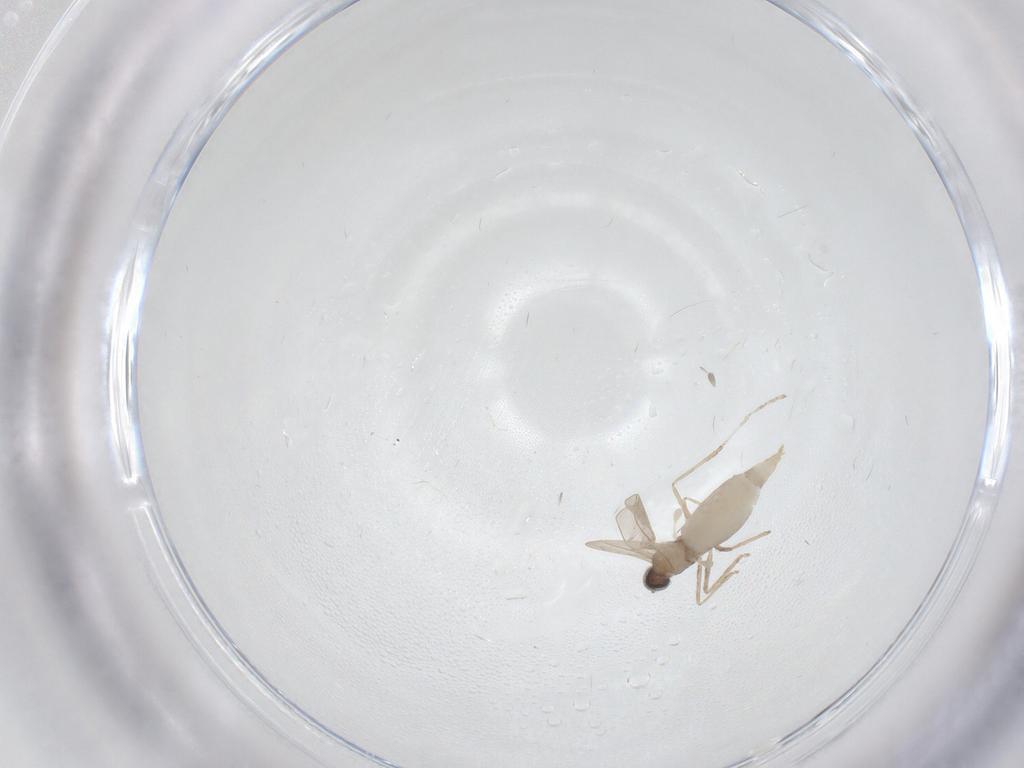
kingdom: Animalia
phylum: Arthropoda
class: Insecta
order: Diptera
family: Cecidomyiidae
